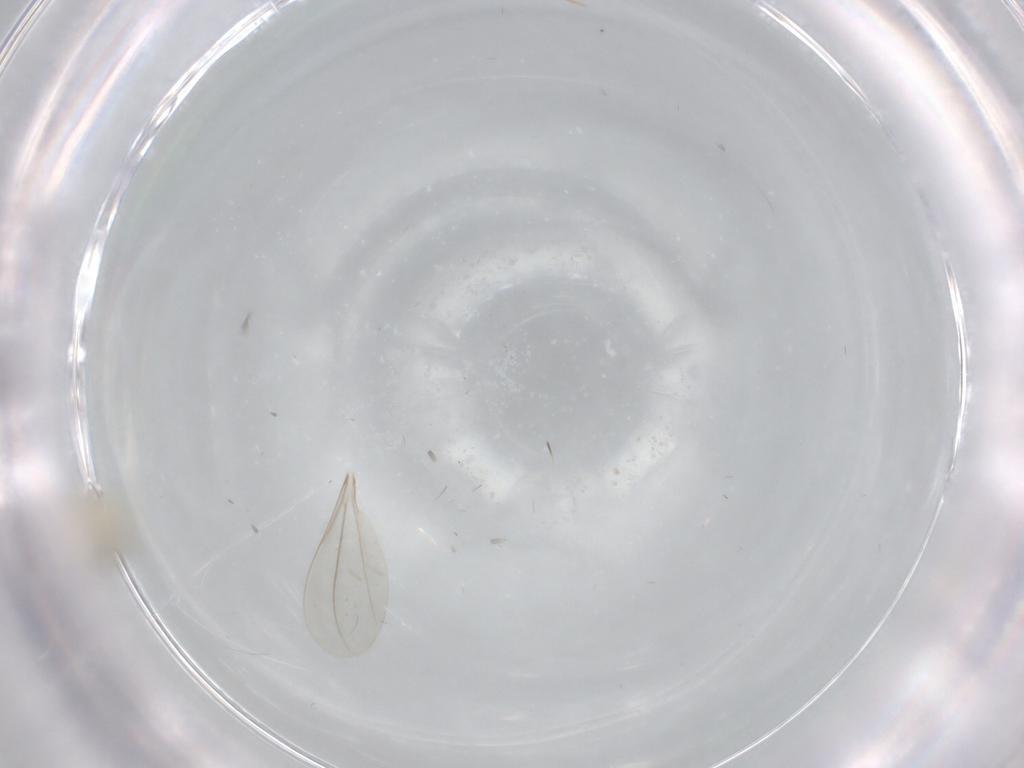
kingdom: Animalia
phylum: Arthropoda
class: Insecta
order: Diptera
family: Cecidomyiidae
